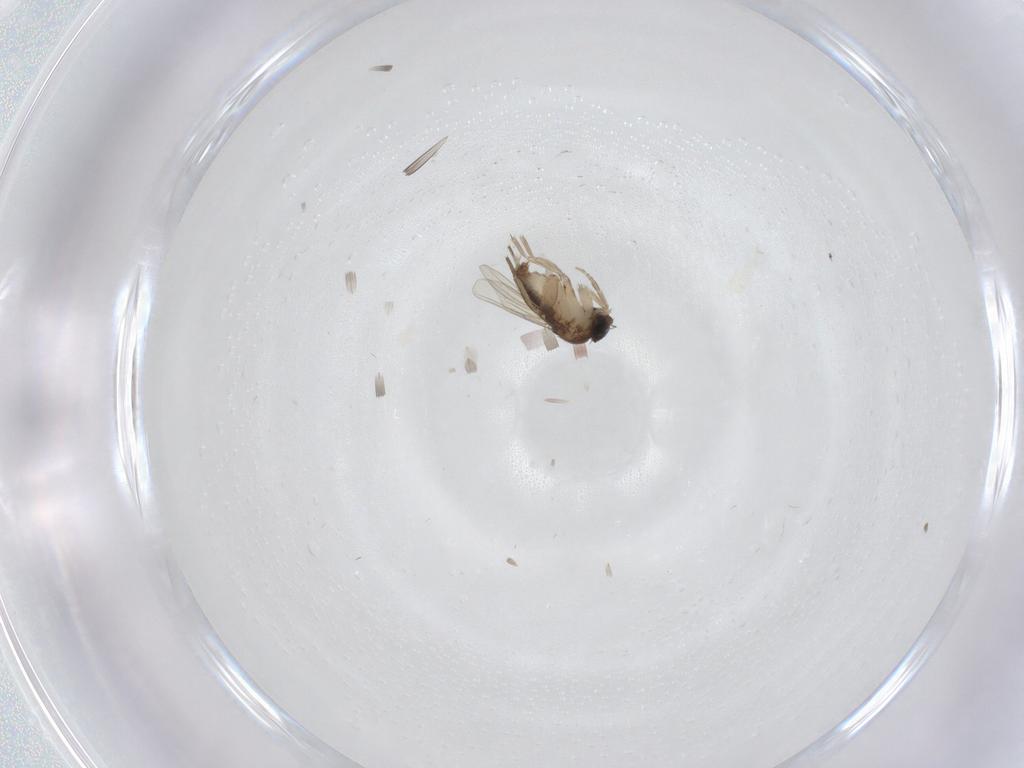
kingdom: Animalia
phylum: Arthropoda
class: Insecta
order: Diptera
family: Cecidomyiidae
